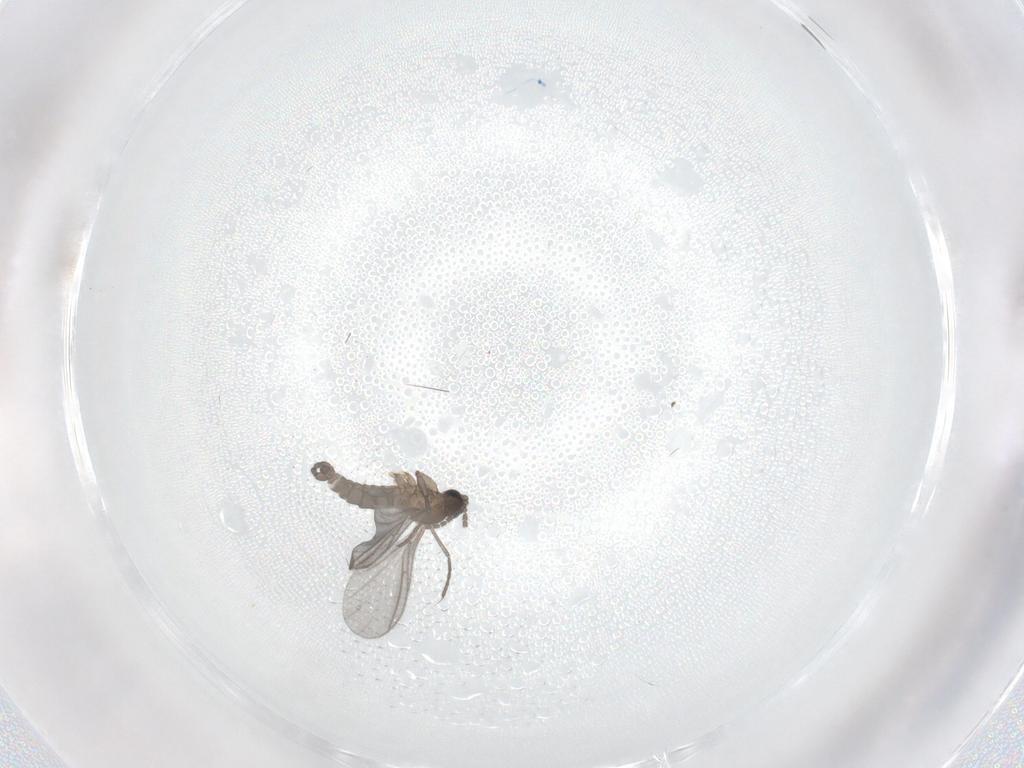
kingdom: Animalia
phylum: Arthropoda
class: Insecta
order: Diptera
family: Sciaridae
